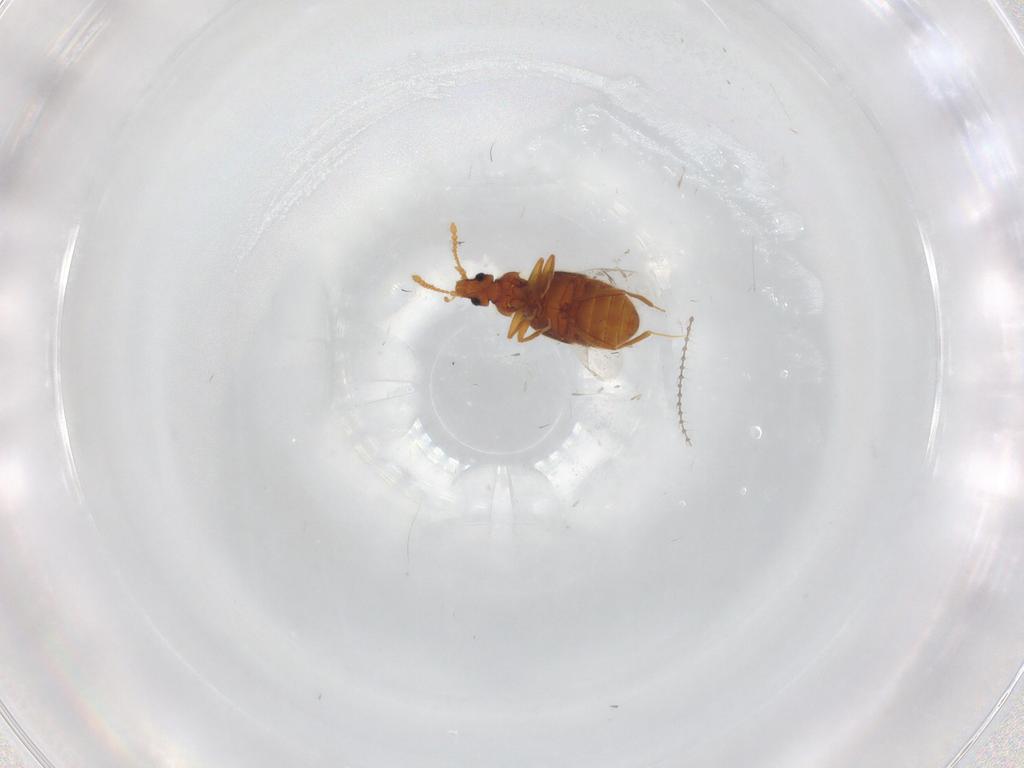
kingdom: Animalia
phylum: Arthropoda
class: Insecta
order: Coleoptera
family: Staphylinidae
